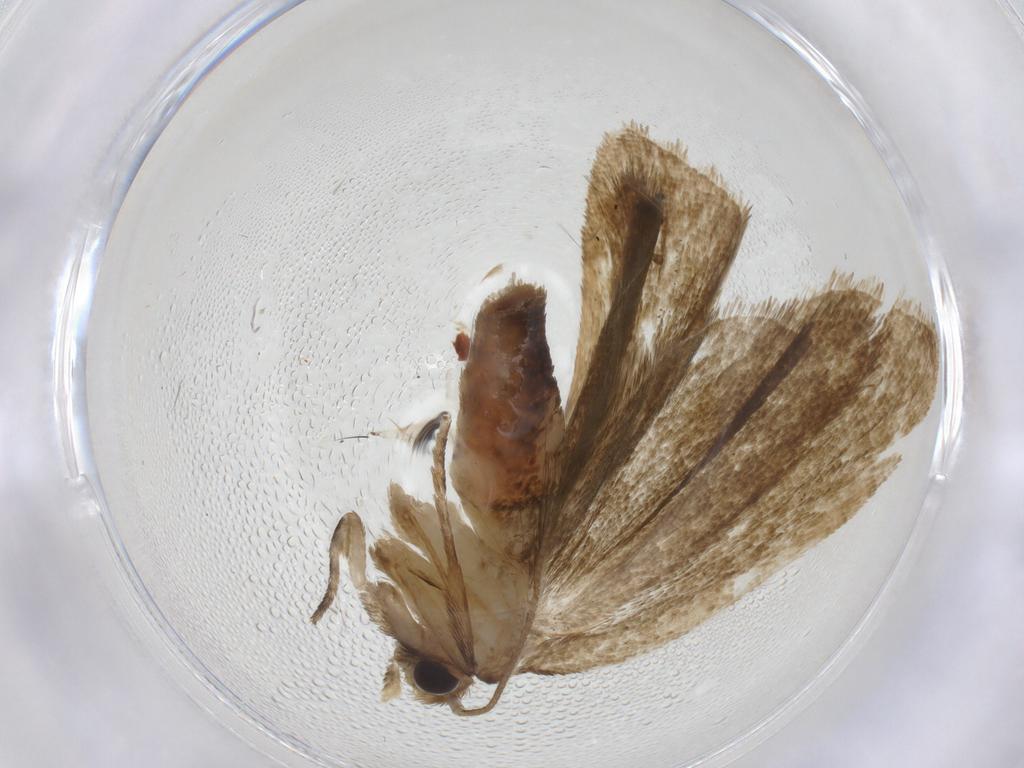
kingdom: Animalia
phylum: Arthropoda
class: Insecta
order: Lepidoptera
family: Tortricidae
